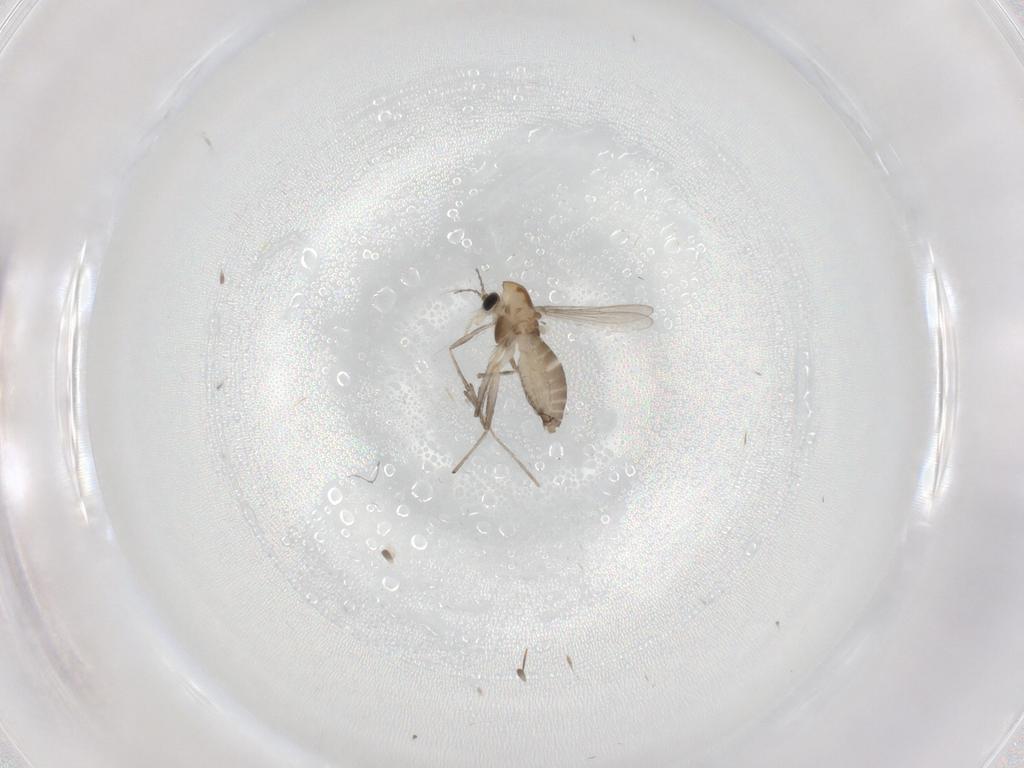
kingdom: Animalia
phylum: Arthropoda
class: Insecta
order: Diptera
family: Chironomidae
